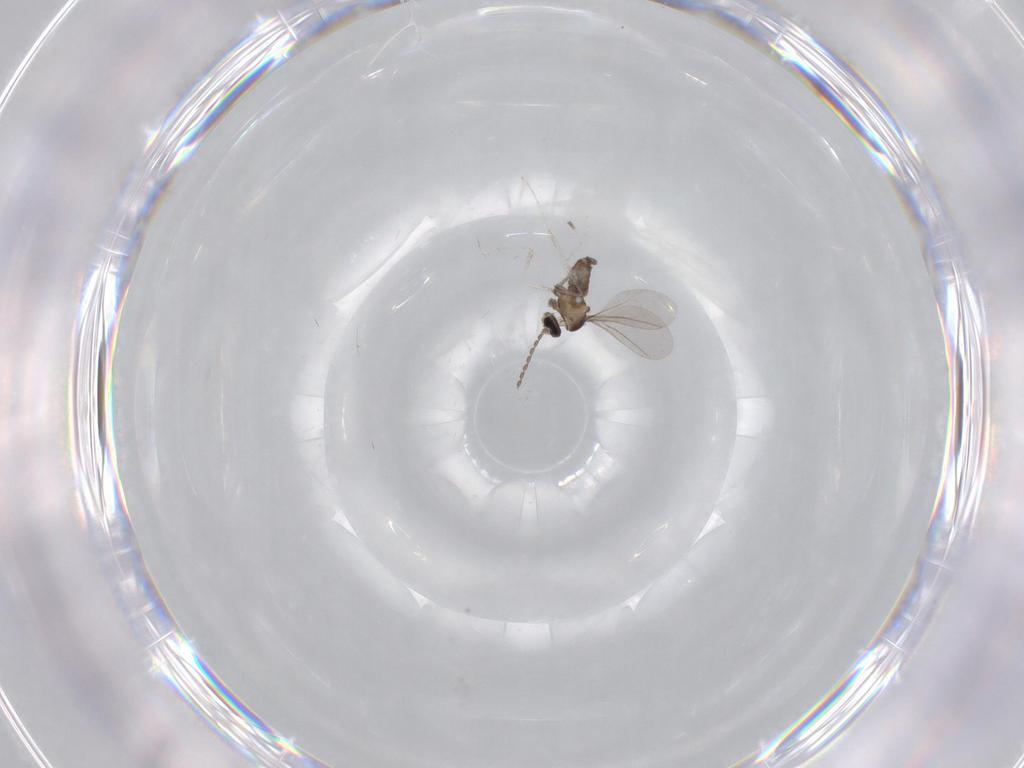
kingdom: Animalia
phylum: Arthropoda
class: Insecta
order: Diptera
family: Cecidomyiidae
